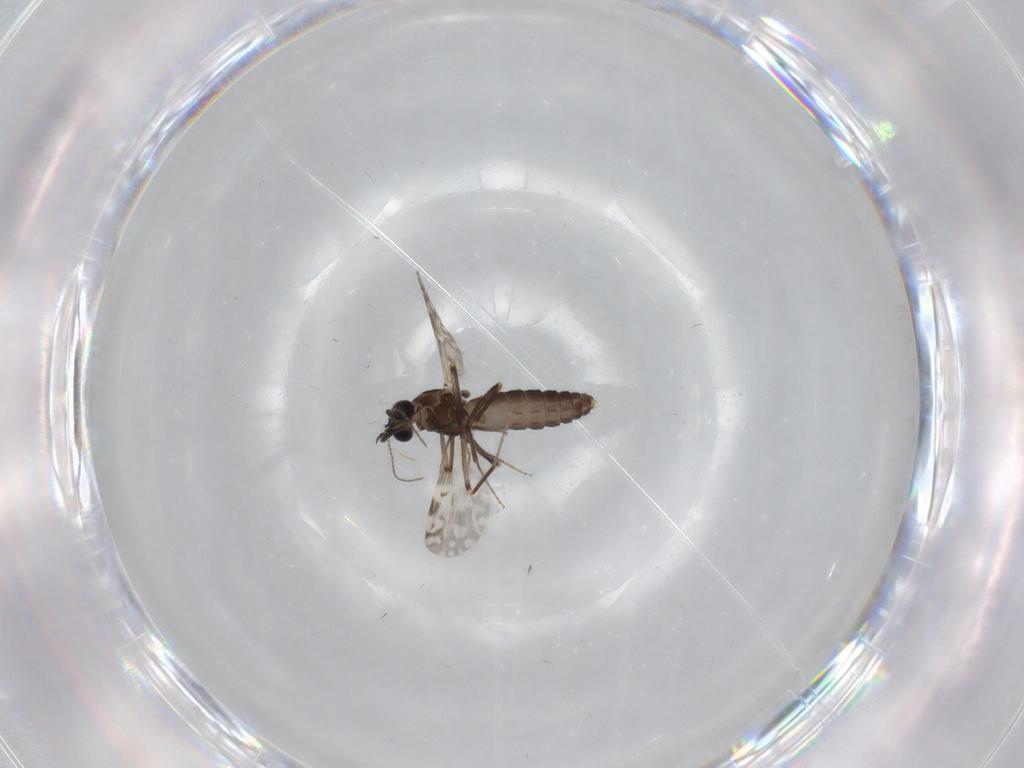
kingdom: Animalia
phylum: Arthropoda
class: Insecta
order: Diptera
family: Ceratopogonidae
